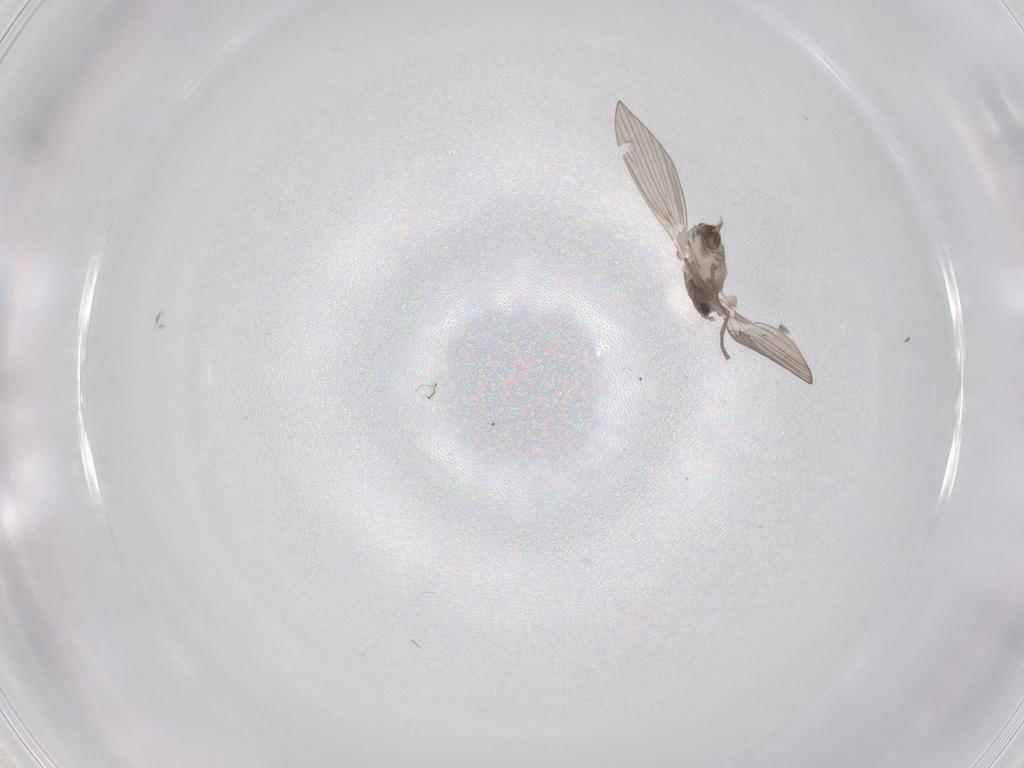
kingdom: Animalia
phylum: Arthropoda
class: Insecta
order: Diptera
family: Psychodidae
